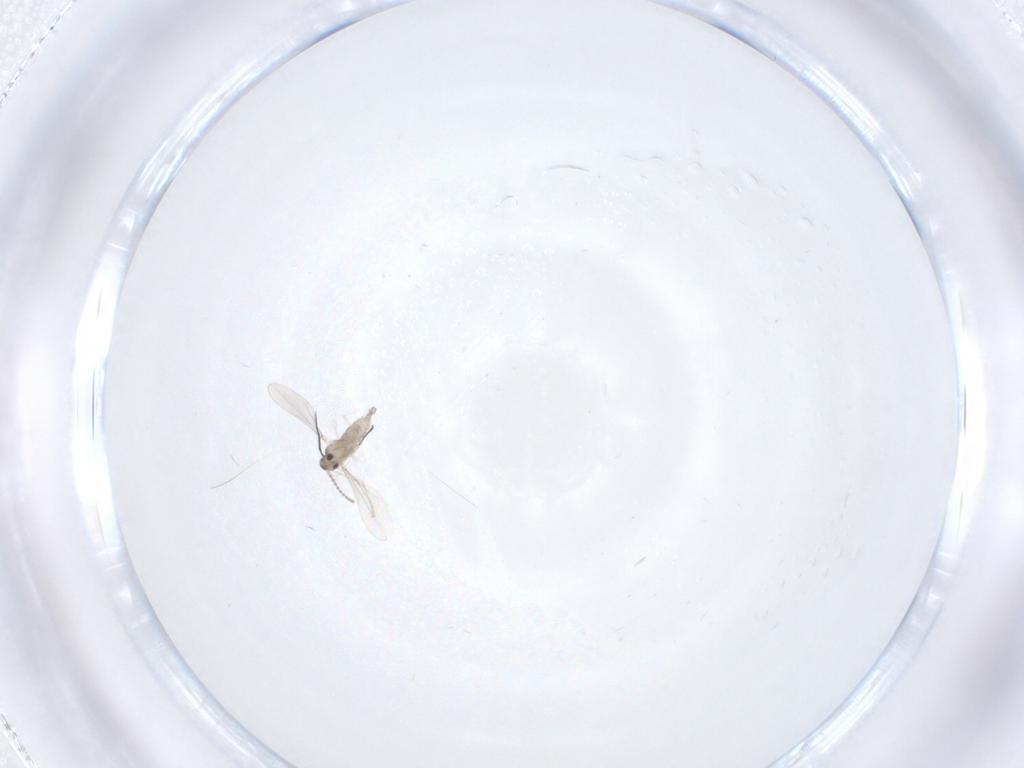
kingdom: Animalia
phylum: Arthropoda
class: Insecta
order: Diptera
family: Cecidomyiidae
